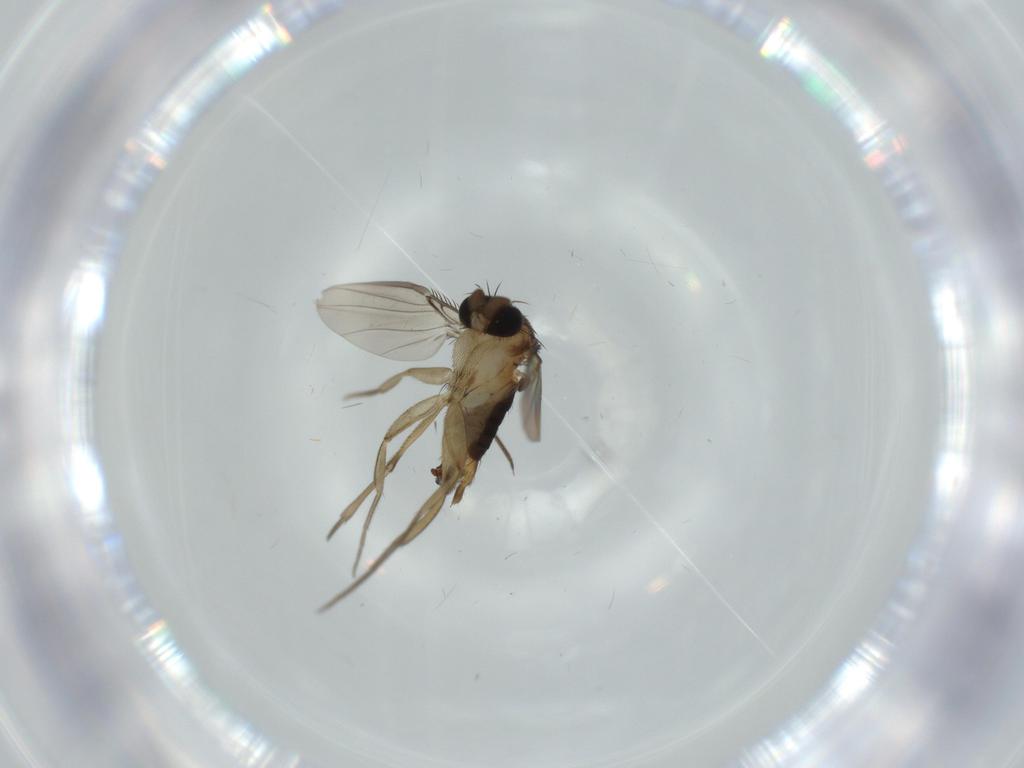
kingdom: Animalia
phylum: Arthropoda
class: Insecta
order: Diptera
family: Phoridae
